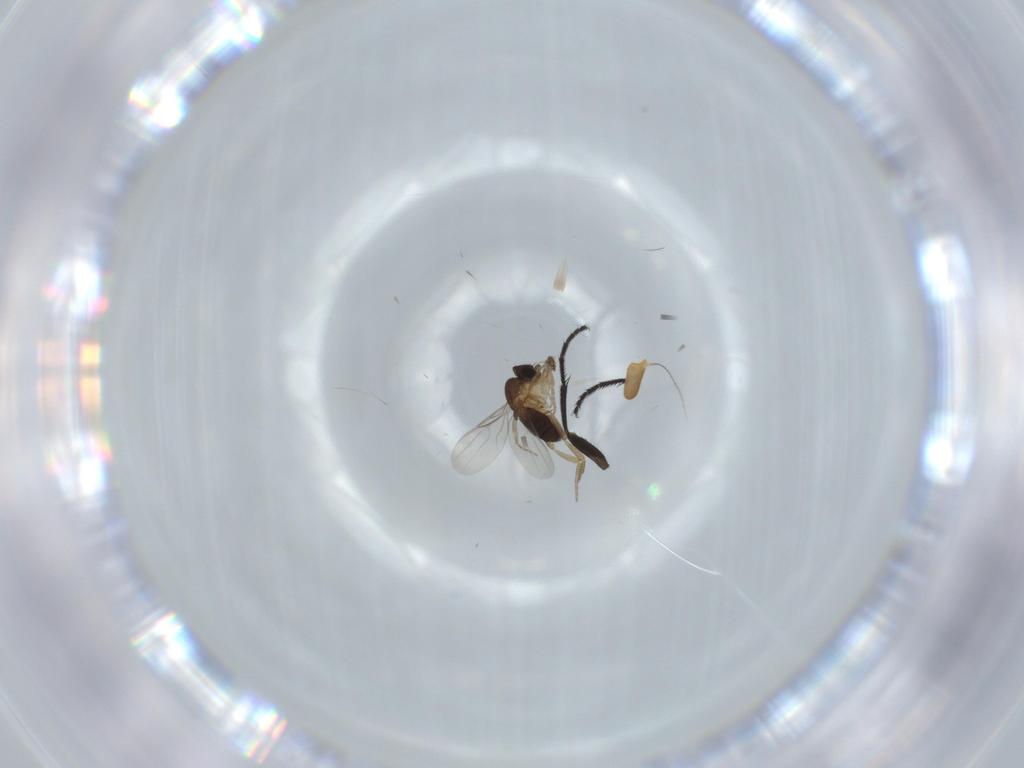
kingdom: Animalia
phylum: Arthropoda
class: Insecta
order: Diptera
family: Phoridae
